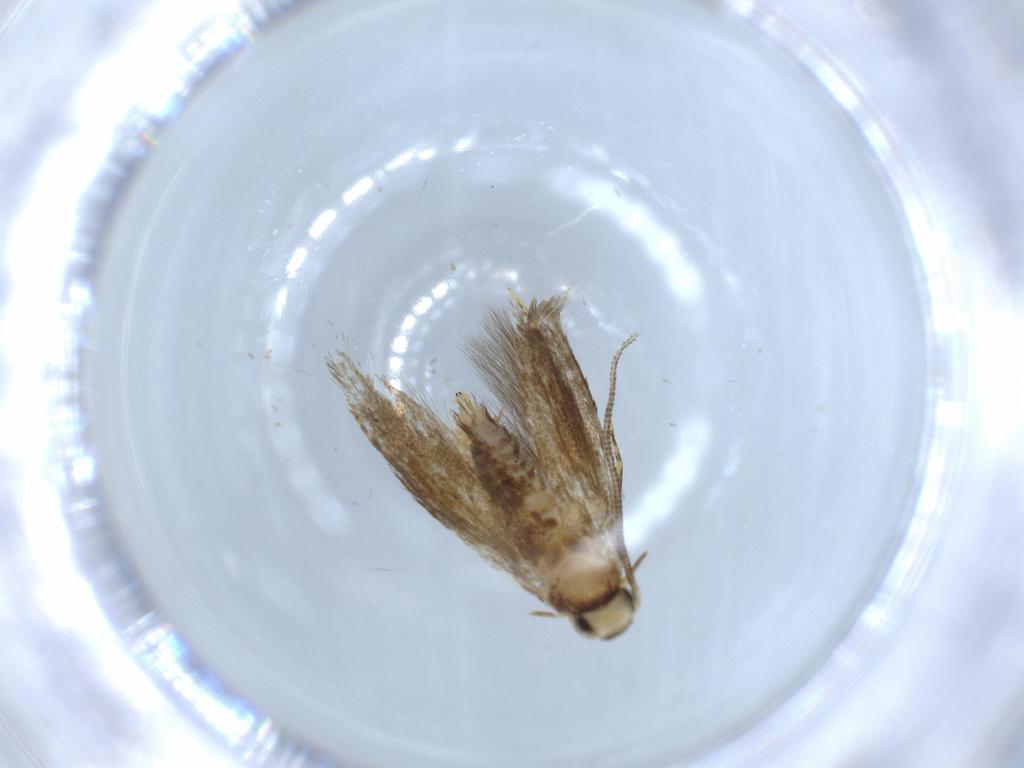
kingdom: Animalia
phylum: Arthropoda
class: Insecta
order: Lepidoptera
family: Tineidae
